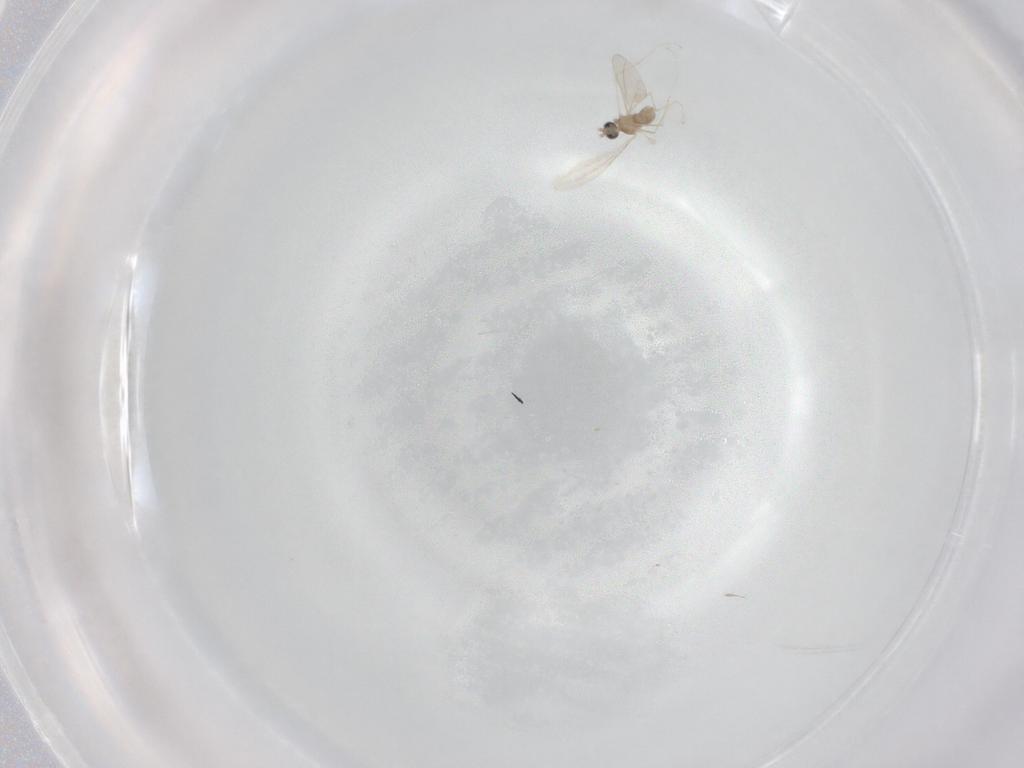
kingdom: Animalia
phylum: Arthropoda
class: Insecta
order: Diptera
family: Cecidomyiidae
